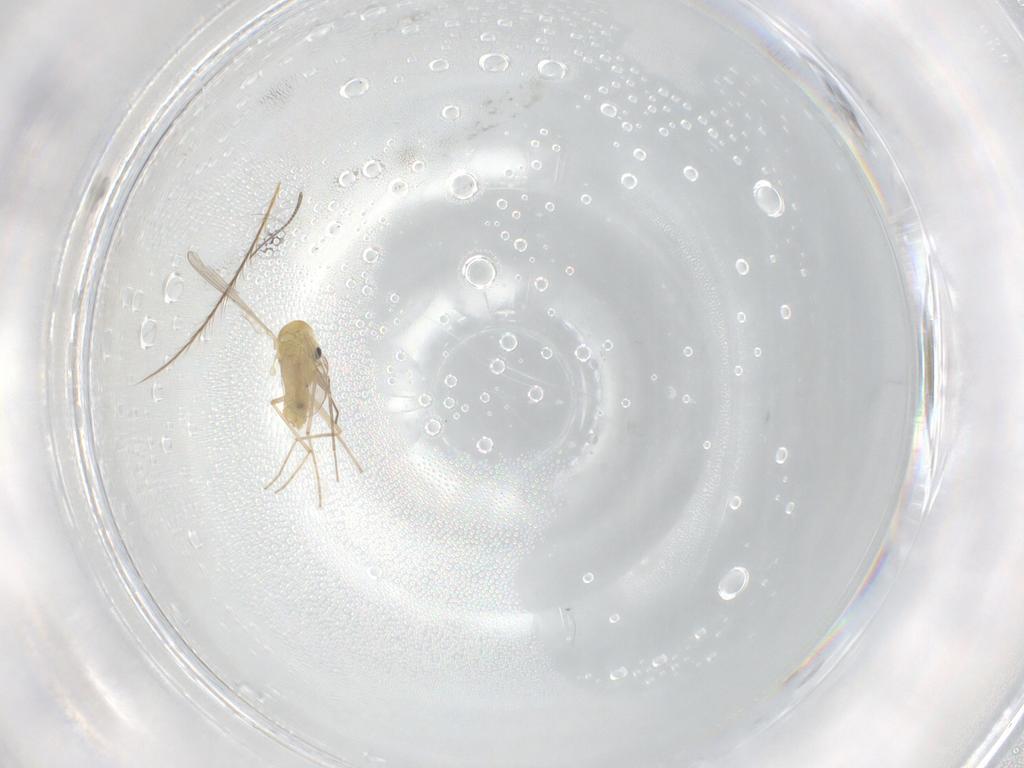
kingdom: Animalia
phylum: Arthropoda
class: Insecta
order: Diptera
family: Chironomidae
